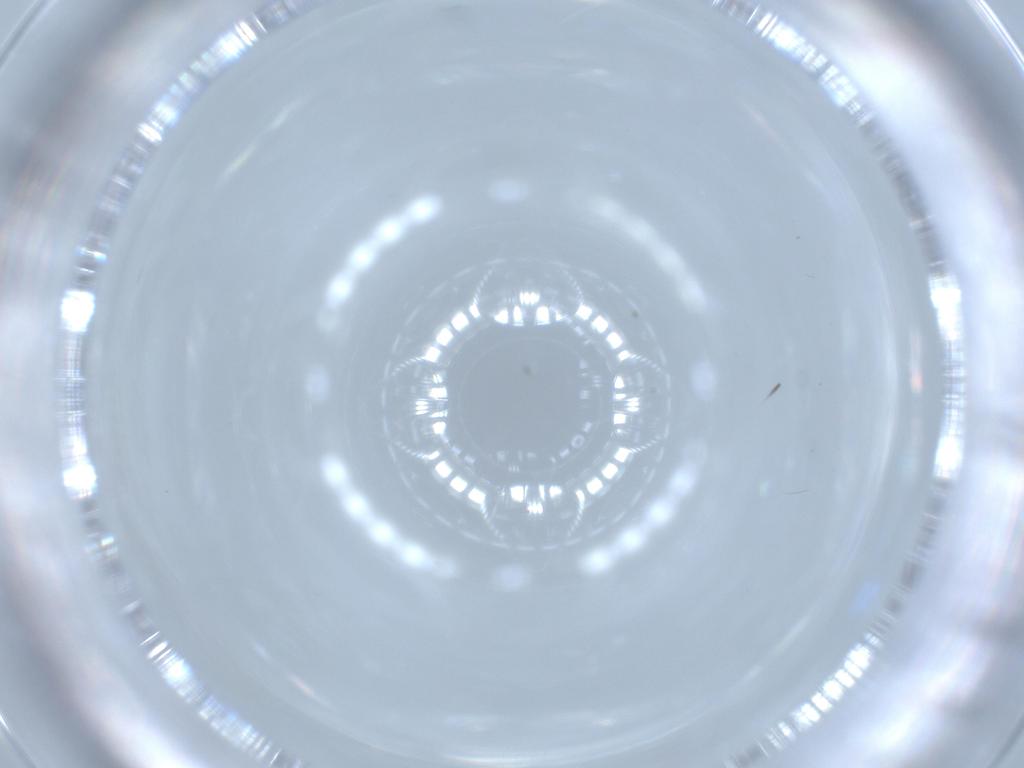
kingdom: Animalia
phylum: Arthropoda
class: Insecta
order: Diptera
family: Cecidomyiidae
